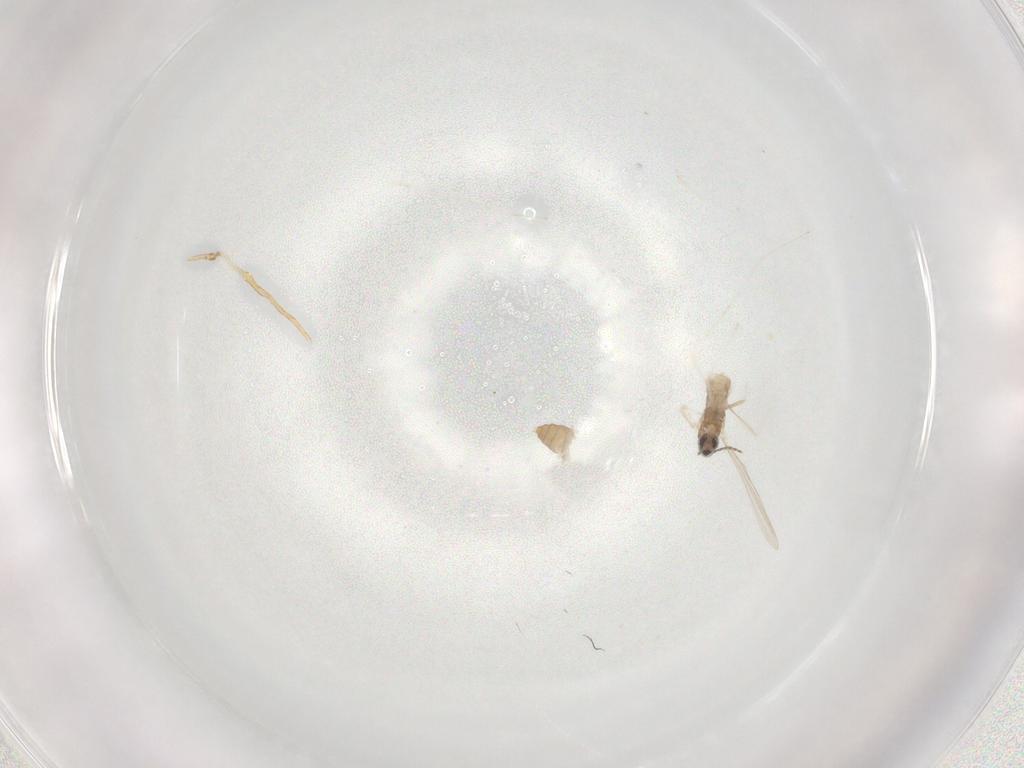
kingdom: Animalia
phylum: Arthropoda
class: Insecta
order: Diptera
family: Cecidomyiidae
